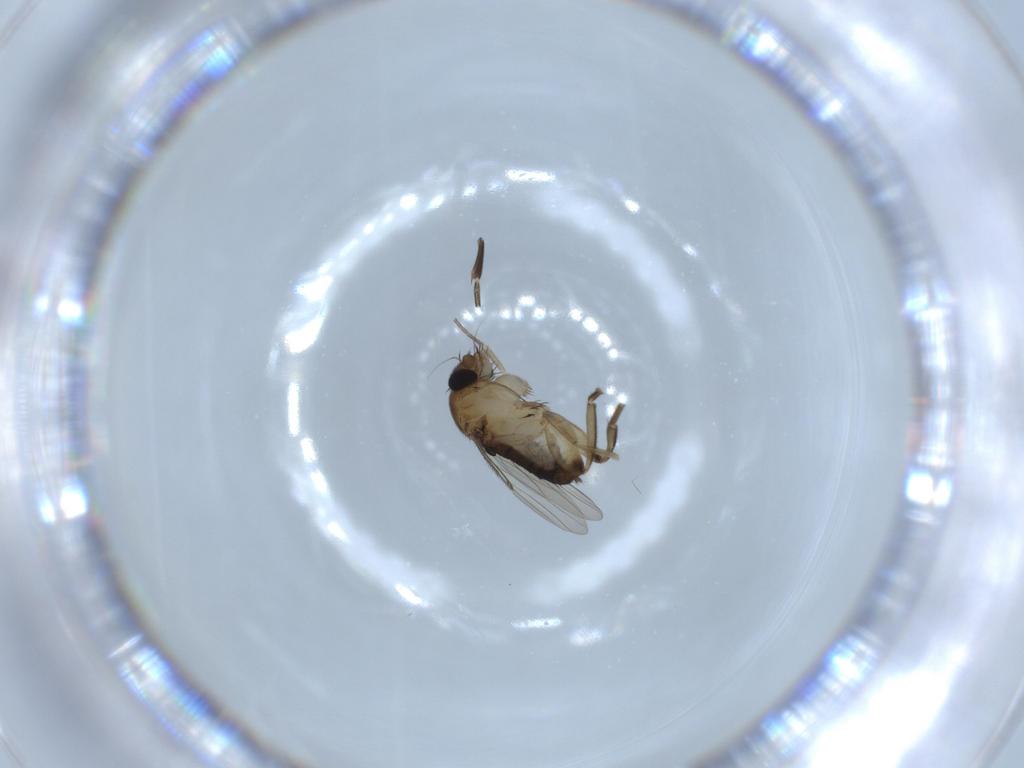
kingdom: Animalia
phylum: Arthropoda
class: Insecta
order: Diptera
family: Phoridae
